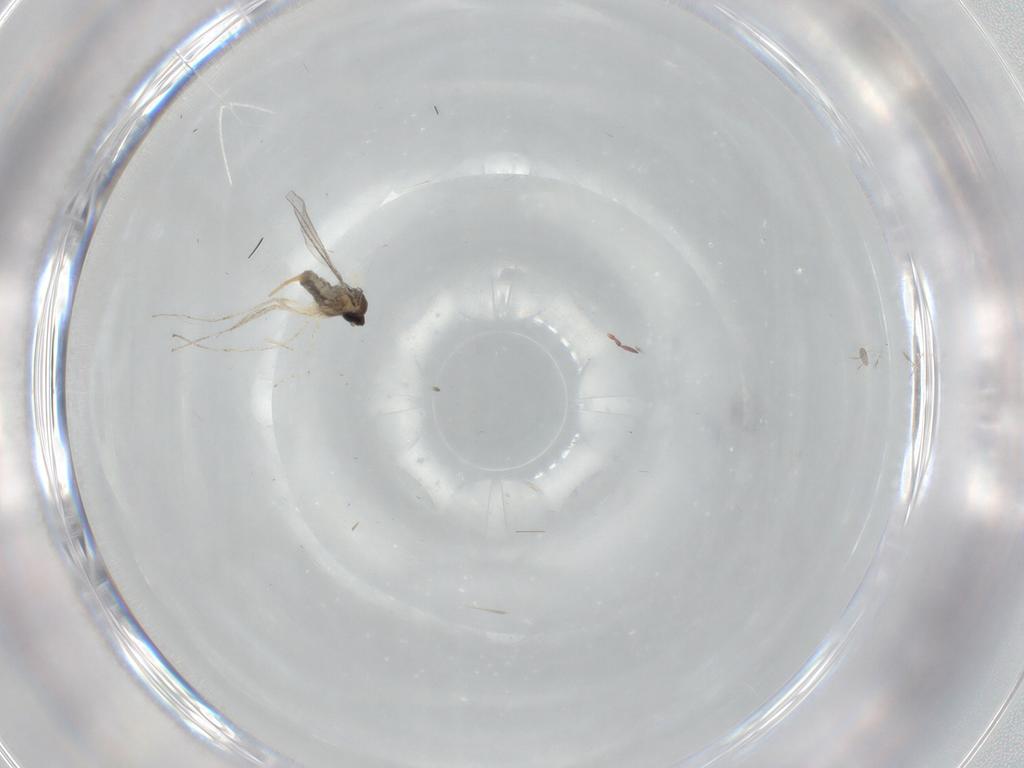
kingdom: Animalia
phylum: Arthropoda
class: Insecta
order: Diptera
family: Cecidomyiidae
